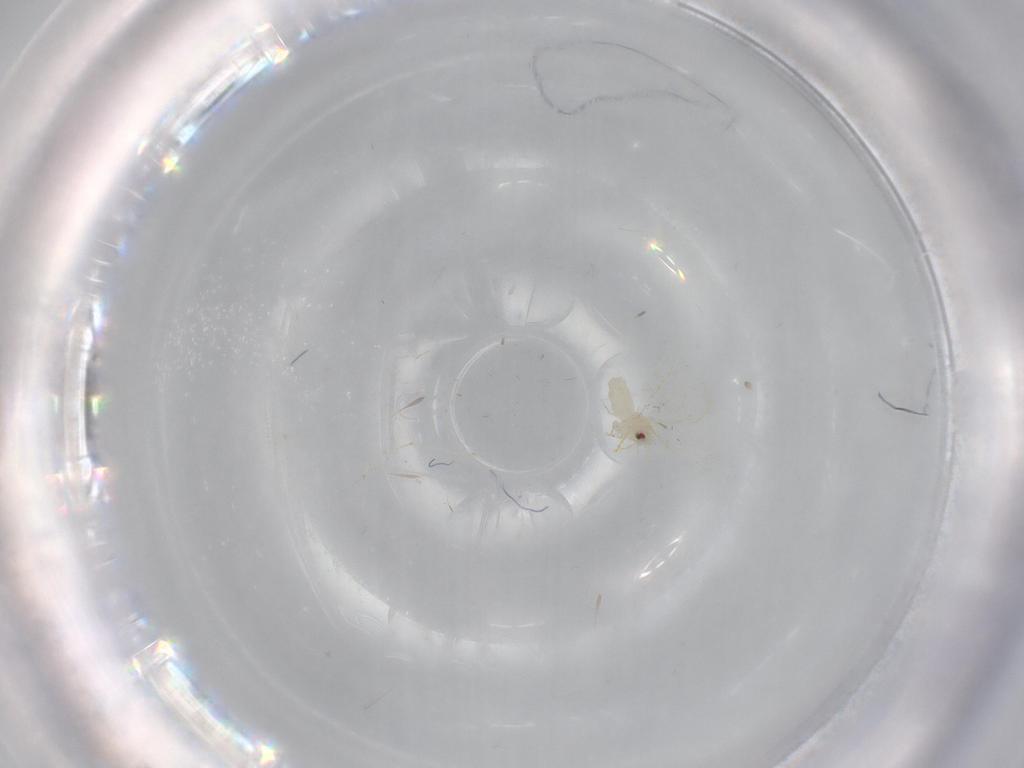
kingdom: Animalia
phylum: Arthropoda
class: Insecta
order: Hemiptera
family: Aleyrodidae
